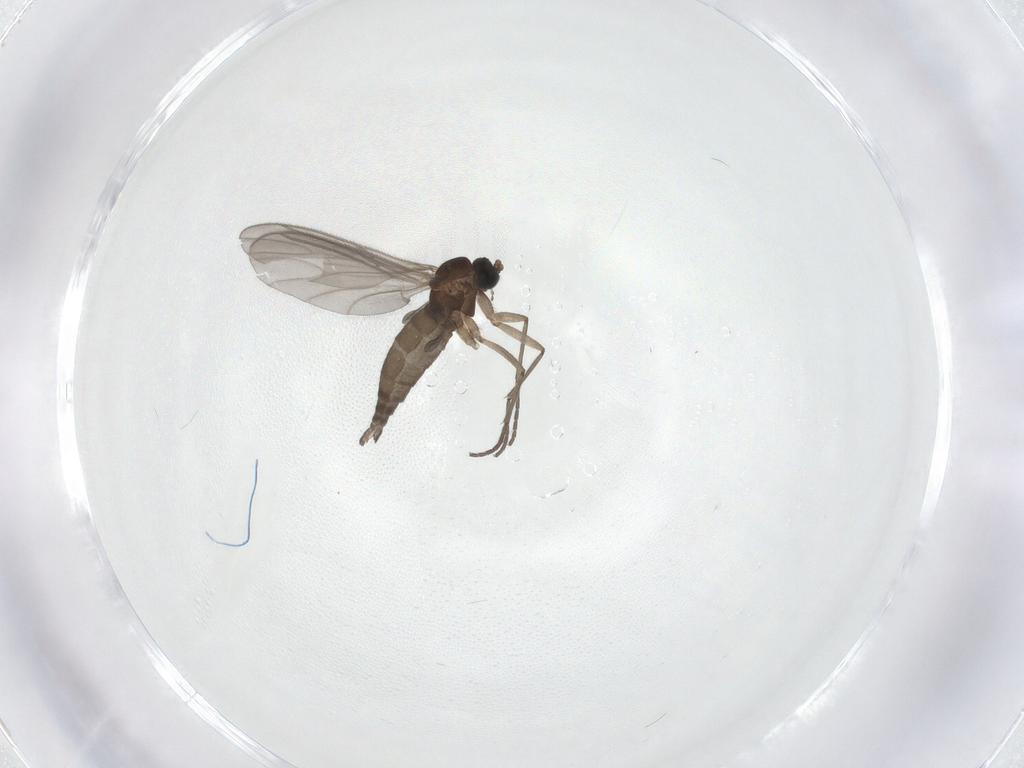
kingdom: Animalia
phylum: Arthropoda
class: Insecta
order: Diptera
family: Sciaridae
